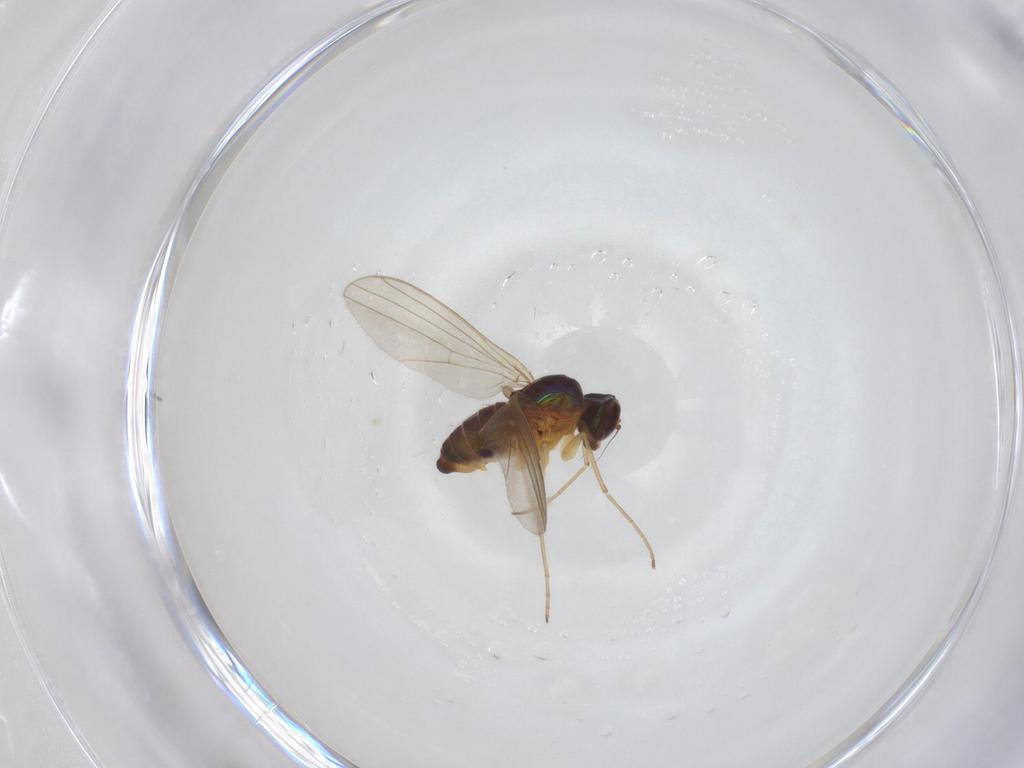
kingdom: Animalia
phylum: Arthropoda
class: Insecta
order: Diptera
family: Dolichopodidae
